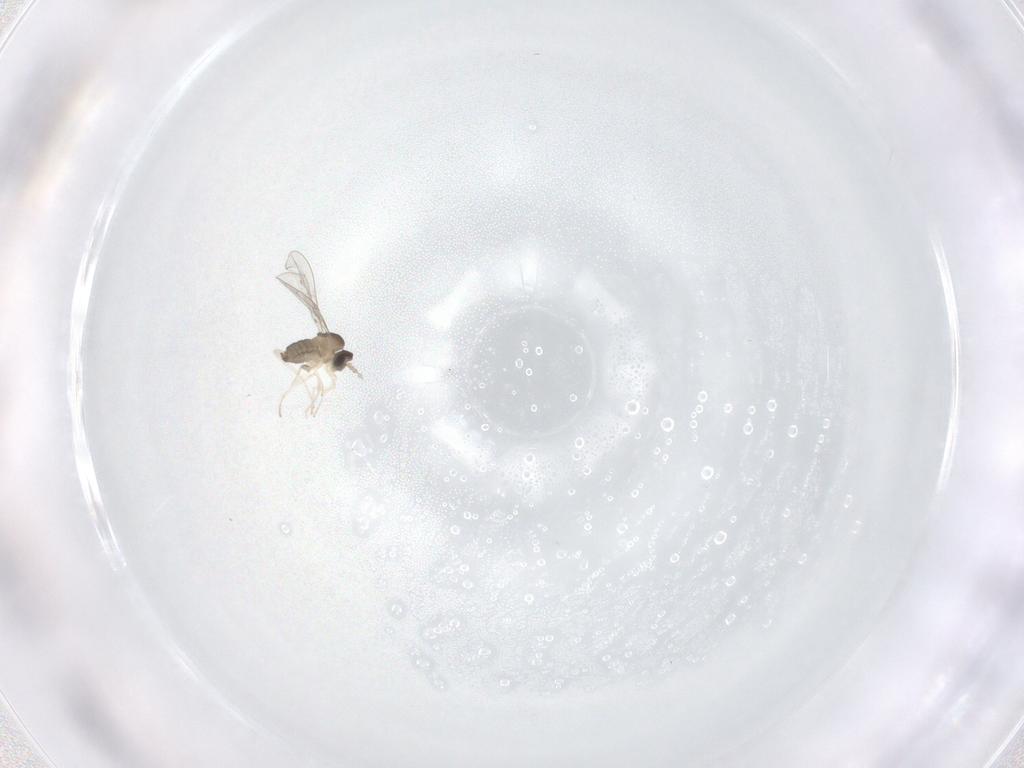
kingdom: Animalia
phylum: Arthropoda
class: Insecta
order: Diptera
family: Cecidomyiidae
